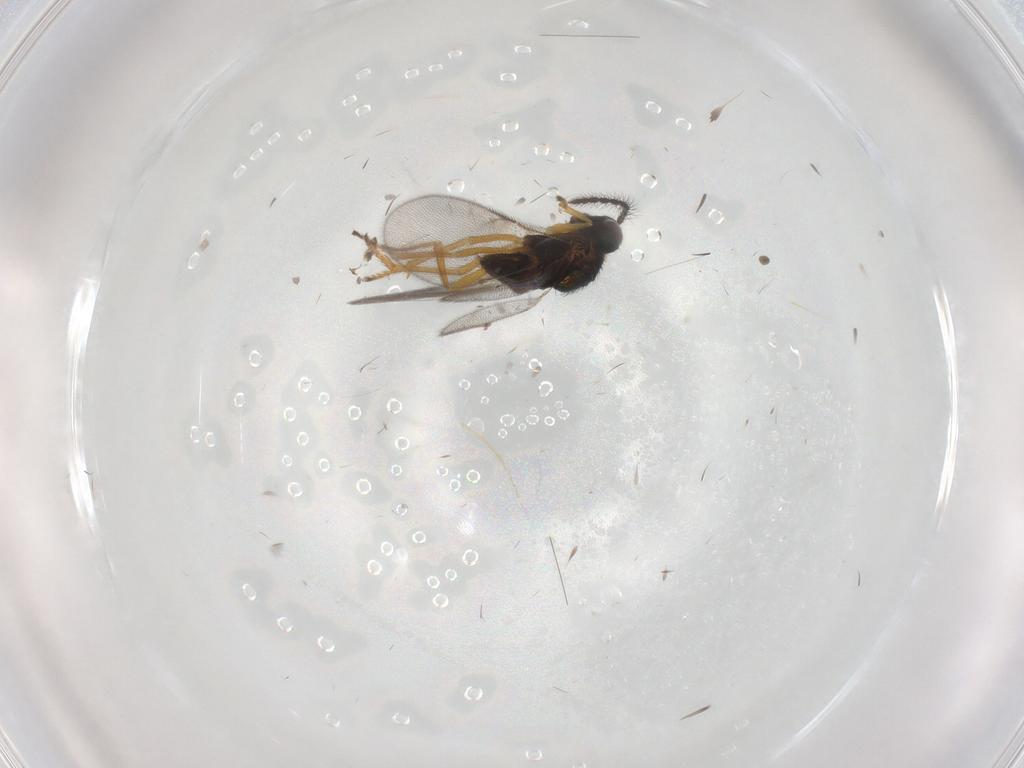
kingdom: Animalia
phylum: Arthropoda
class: Insecta
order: Hymenoptera
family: Encyrtidae
